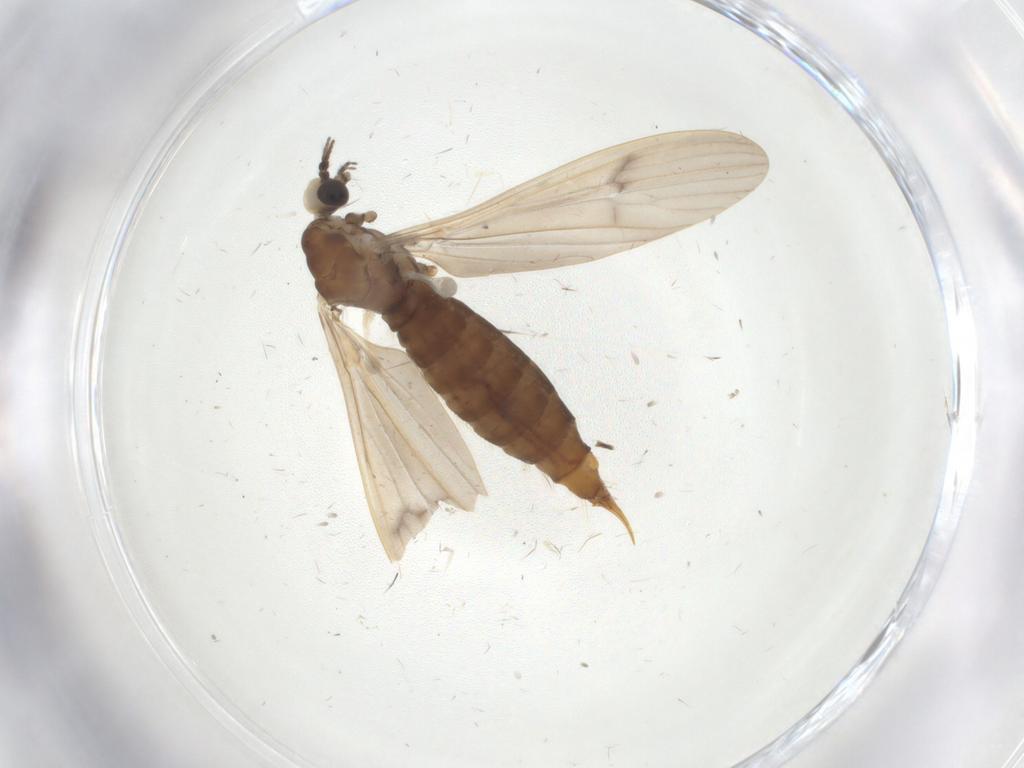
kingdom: Animalia
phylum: Arthropoda
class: Insecta
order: Diptera
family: Limoniidae
